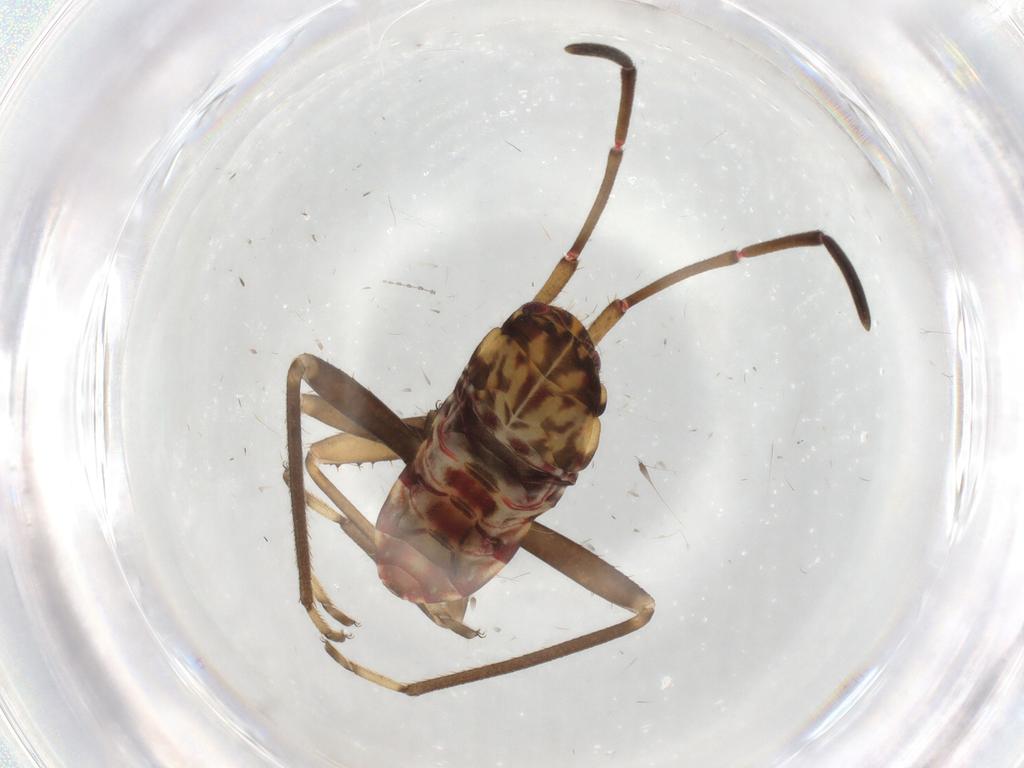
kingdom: Animalia
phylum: Arthropoda
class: Insecta
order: Hemiptera
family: Rhyparochromidae
